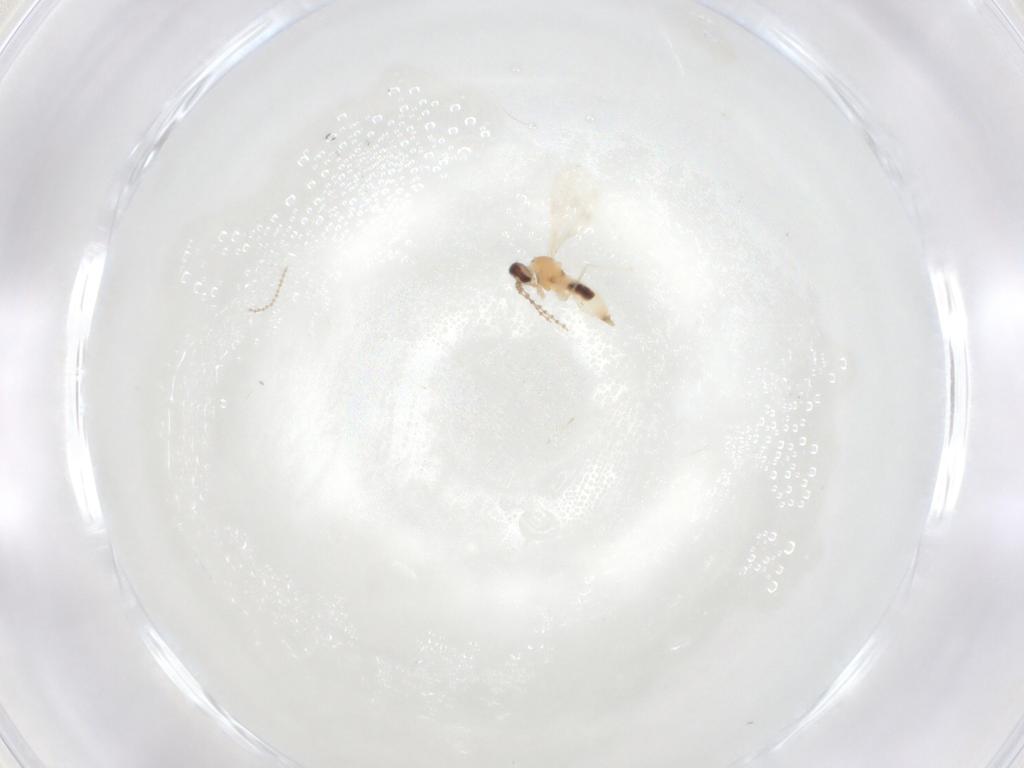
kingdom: Animalia
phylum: Arthropoda
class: Insecta
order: Diptera
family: Cecidomyiidae
